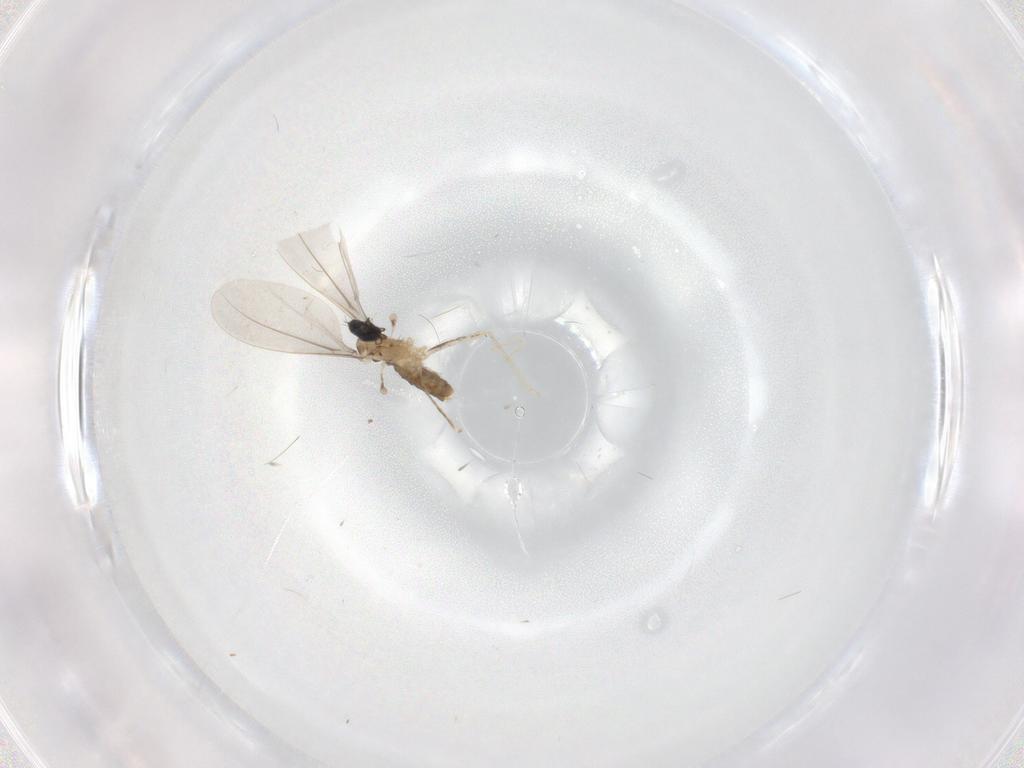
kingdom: Animalia
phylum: Arthropoda
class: Insecta
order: Diptera
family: Cecidomyiidae
